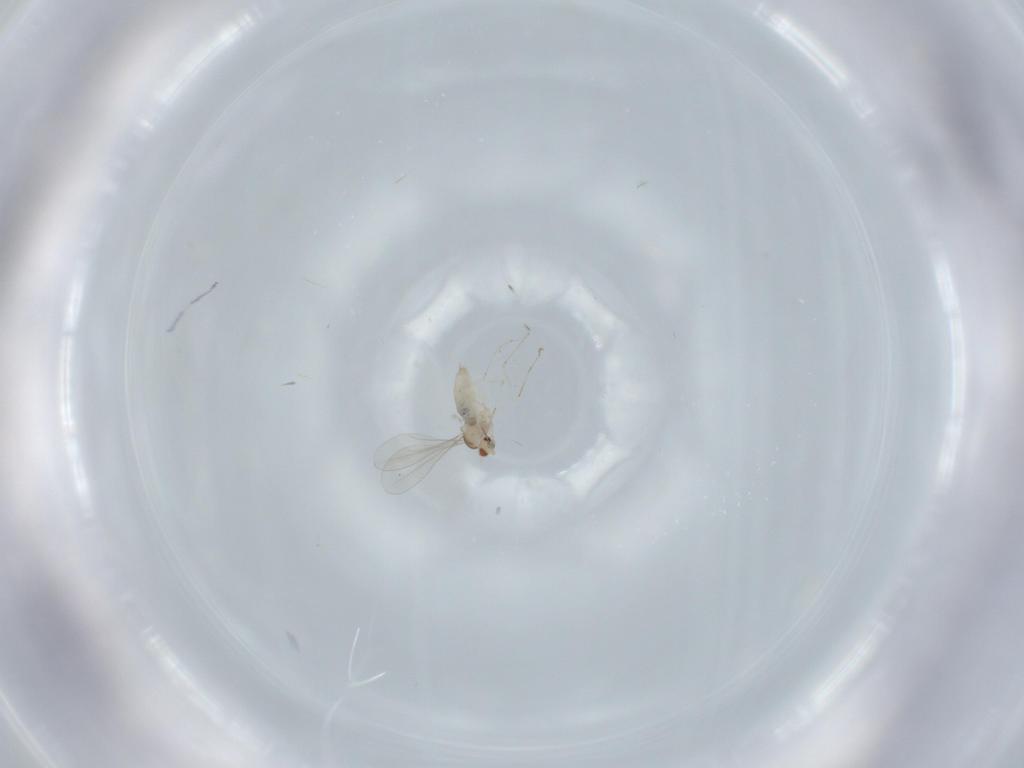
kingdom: Animalia
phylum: Arthropoda
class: Insecta
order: Diptera
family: Cecidomyiidae
